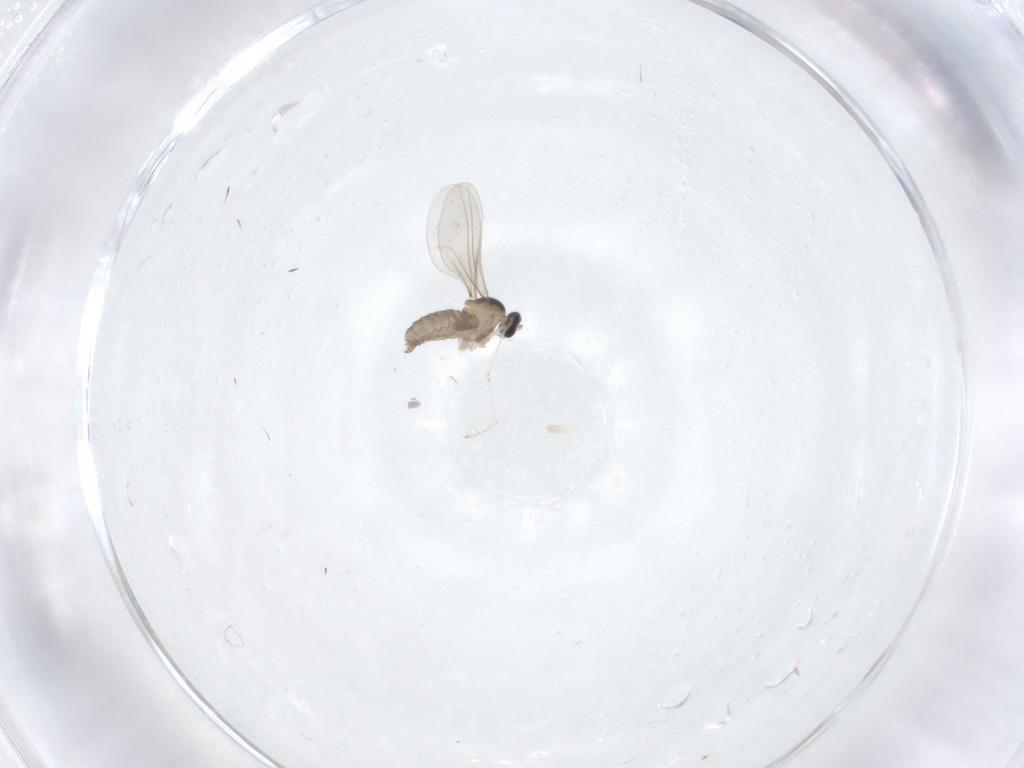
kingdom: Animalia
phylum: Arthropoda
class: Insecta
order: Diptera
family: Cecidomyiidae
